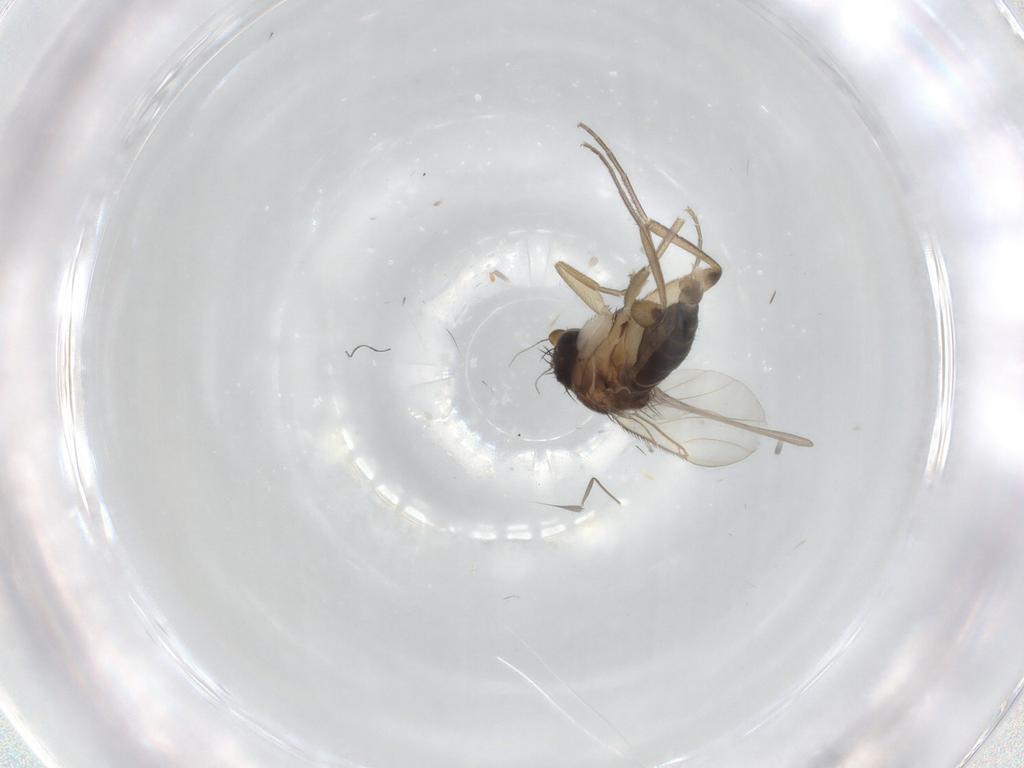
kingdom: Animalia
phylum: Arthropoda
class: Insecta
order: Diptera
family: Phoridae
